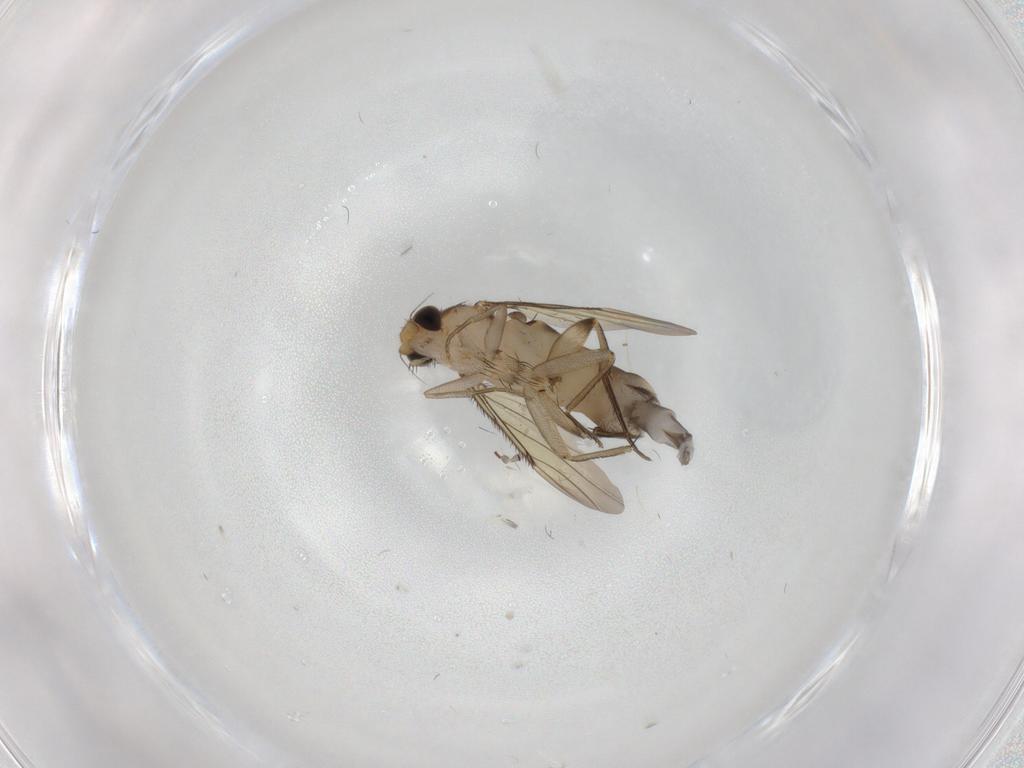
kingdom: Animalia
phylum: Arthropoda
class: Insecta
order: Diptera
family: Phoridae
